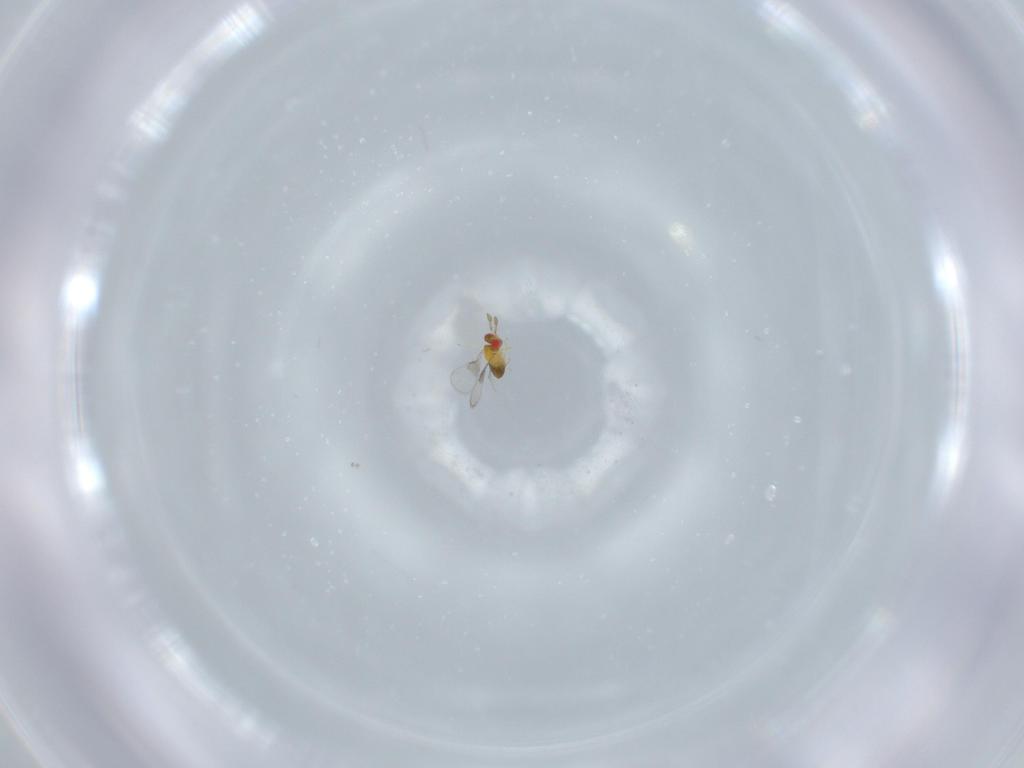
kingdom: Animalia
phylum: Arthropoda
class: Insecta
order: Hymenoptera
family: Trichogrammatidae
